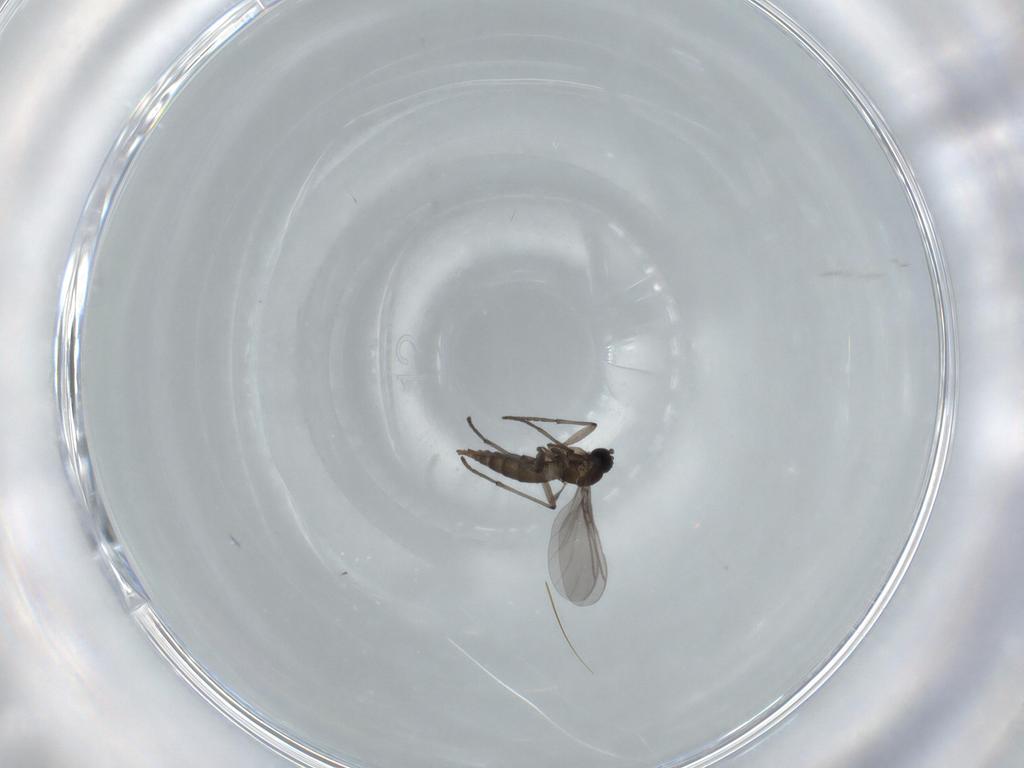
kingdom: Animalia
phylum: Arthropoda
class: Insecta
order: Diptera
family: Sciaridae
